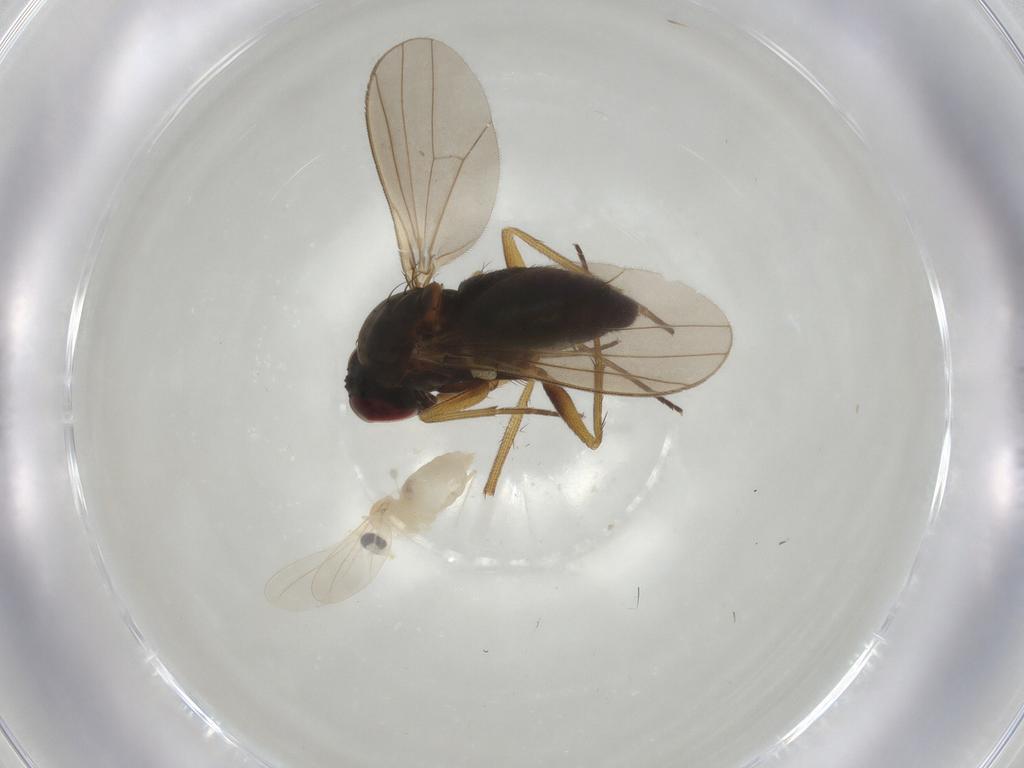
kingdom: Animalia
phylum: Arthropoda
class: Insecta
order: Diptera
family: Dolichopodidae
